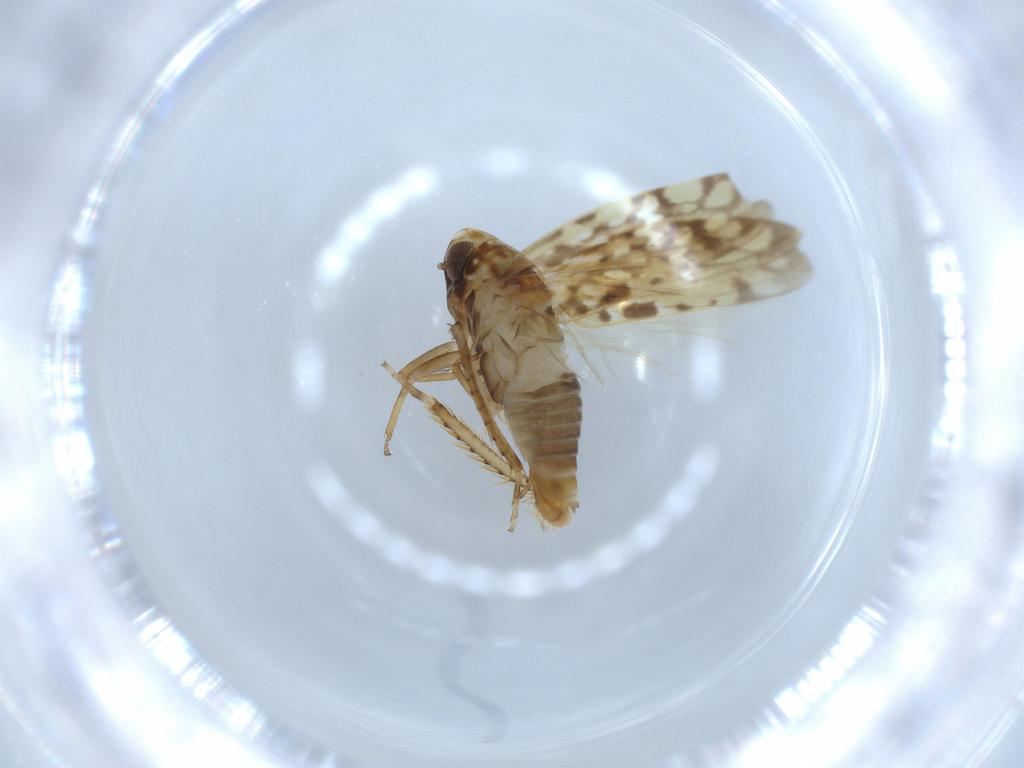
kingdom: Animalia
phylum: Arthropoda
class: Insecta
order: Hemiptera
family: Cicadellidae
